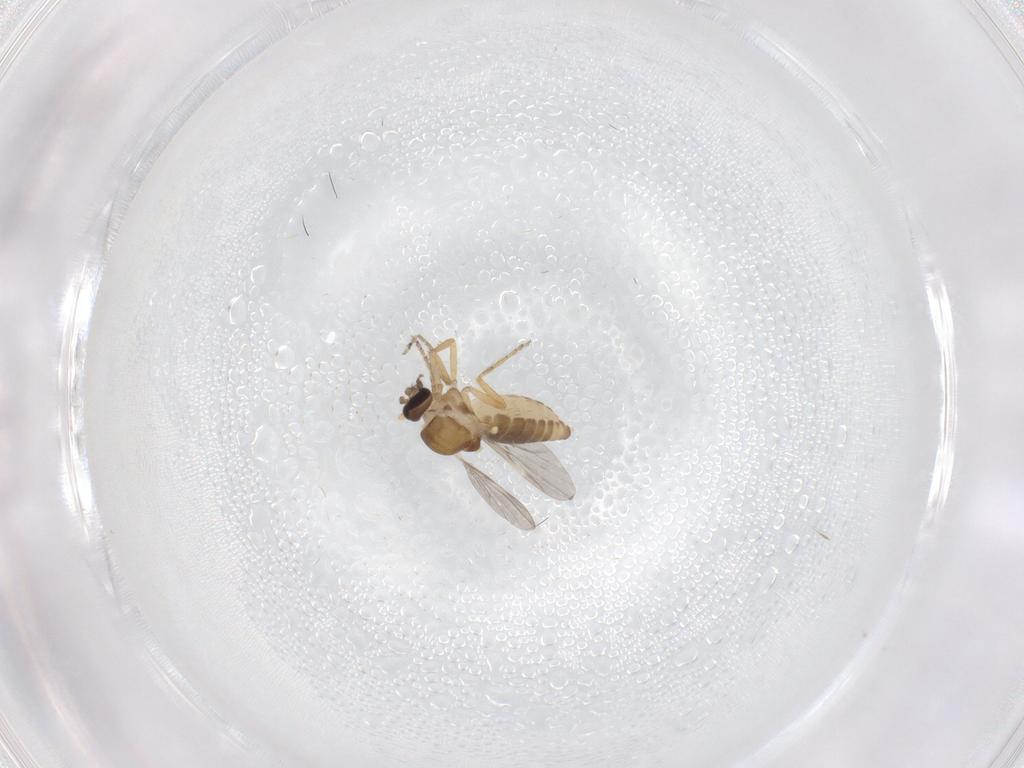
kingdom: Animalia
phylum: Arthropoda
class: Insecta
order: Diptera
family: Ceratopogonidae
